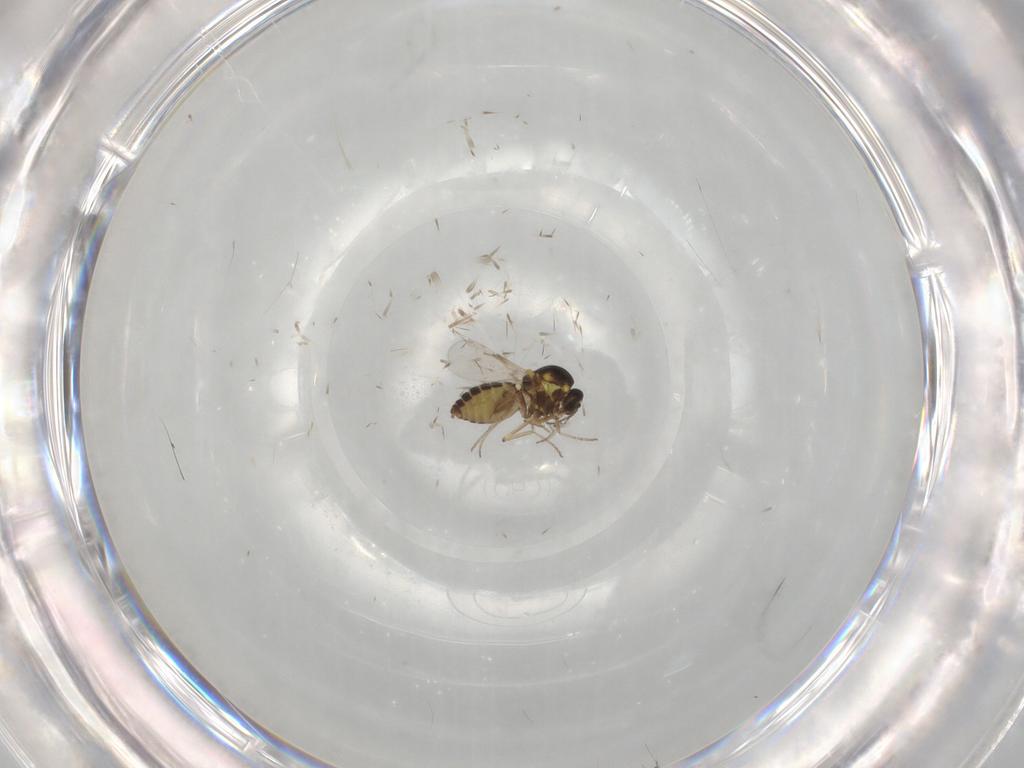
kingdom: Animalia
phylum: Arthropoda
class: Insecta
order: Diptera
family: Ceratopogonidae
